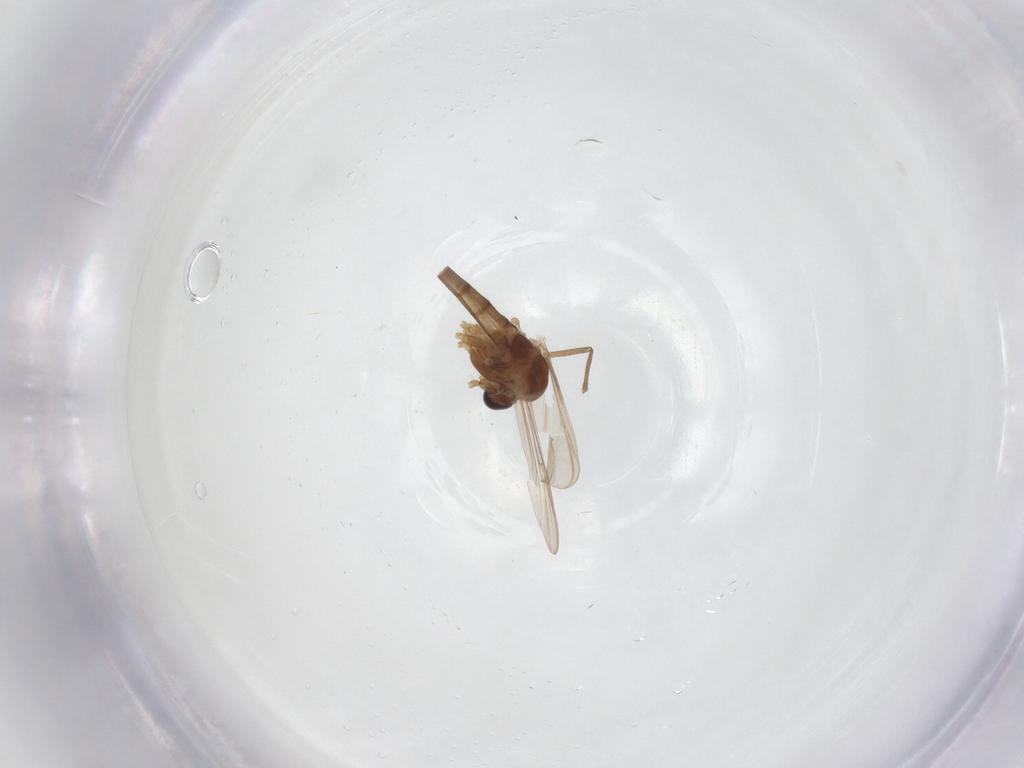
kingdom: Animalia
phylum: Arthropoda
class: Insecta
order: Diptera
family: Chironomidae
